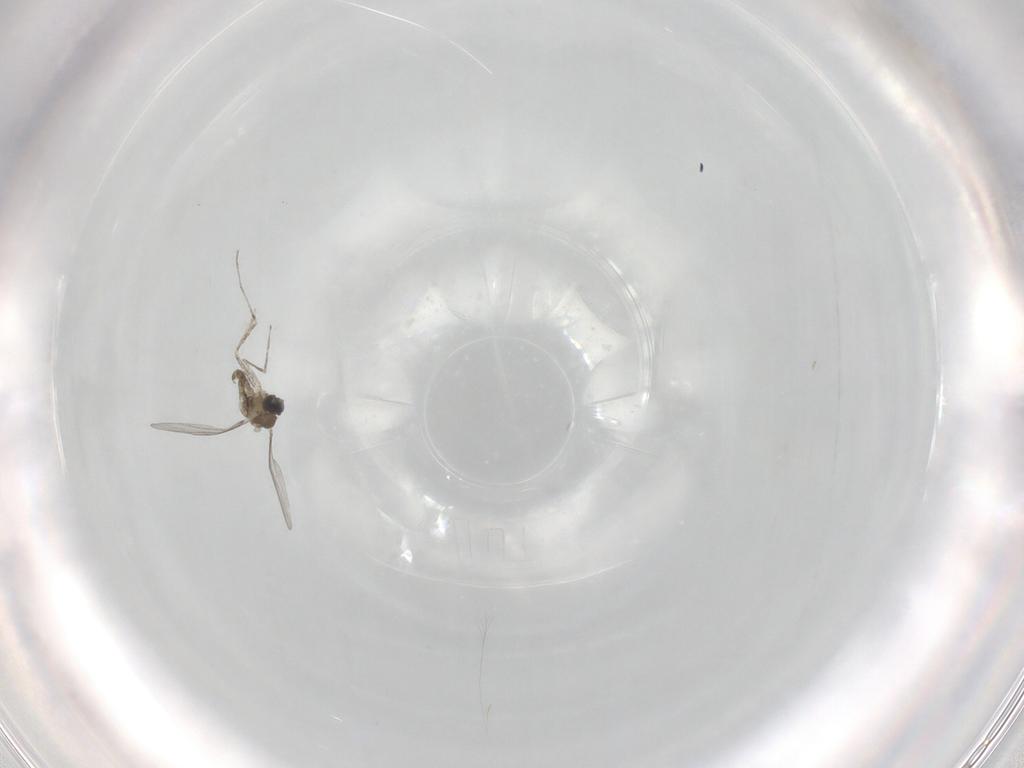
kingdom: Animalia
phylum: Arthropoda
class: Insecta
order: Diptera
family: Cecidomyiidae
